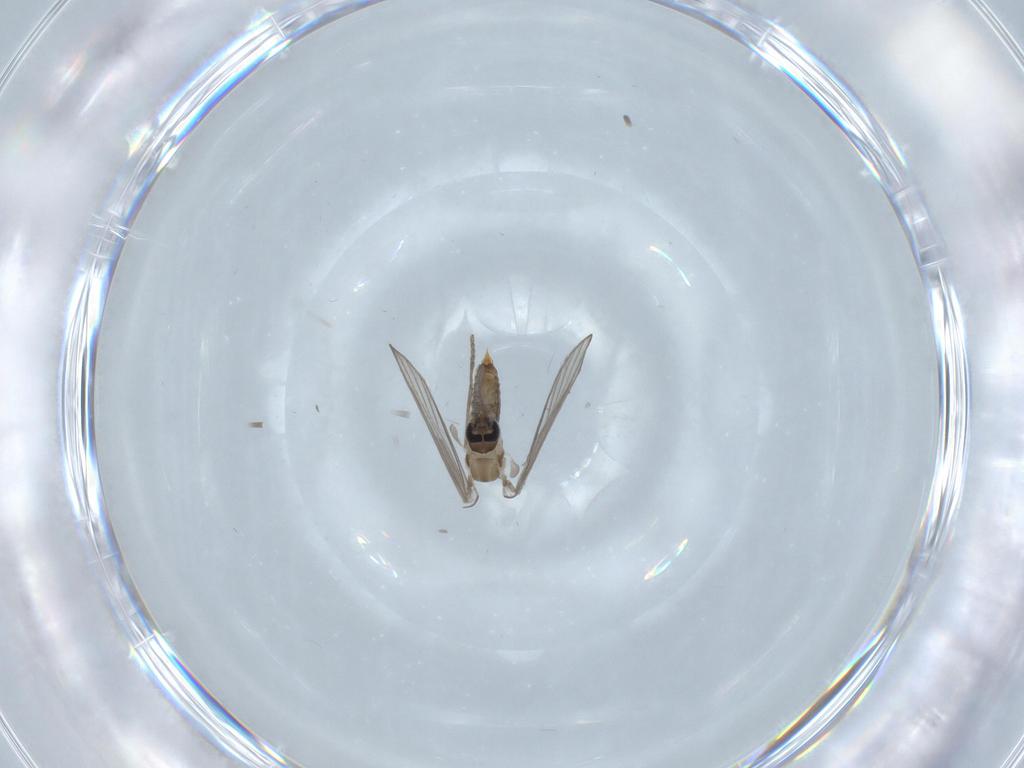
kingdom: Animalia
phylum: Arthropoda
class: Insecta
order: Diptera
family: Psychodidae
